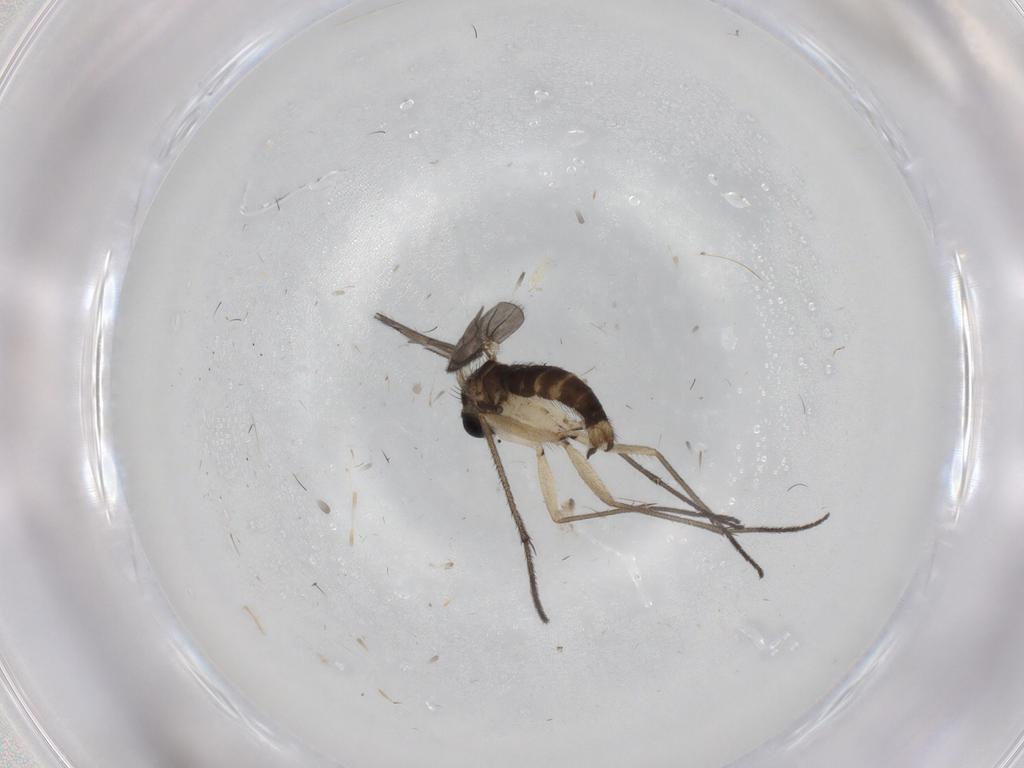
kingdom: Animalia
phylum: Arthropoda
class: Insecta
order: Diptera
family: Sciaridae
